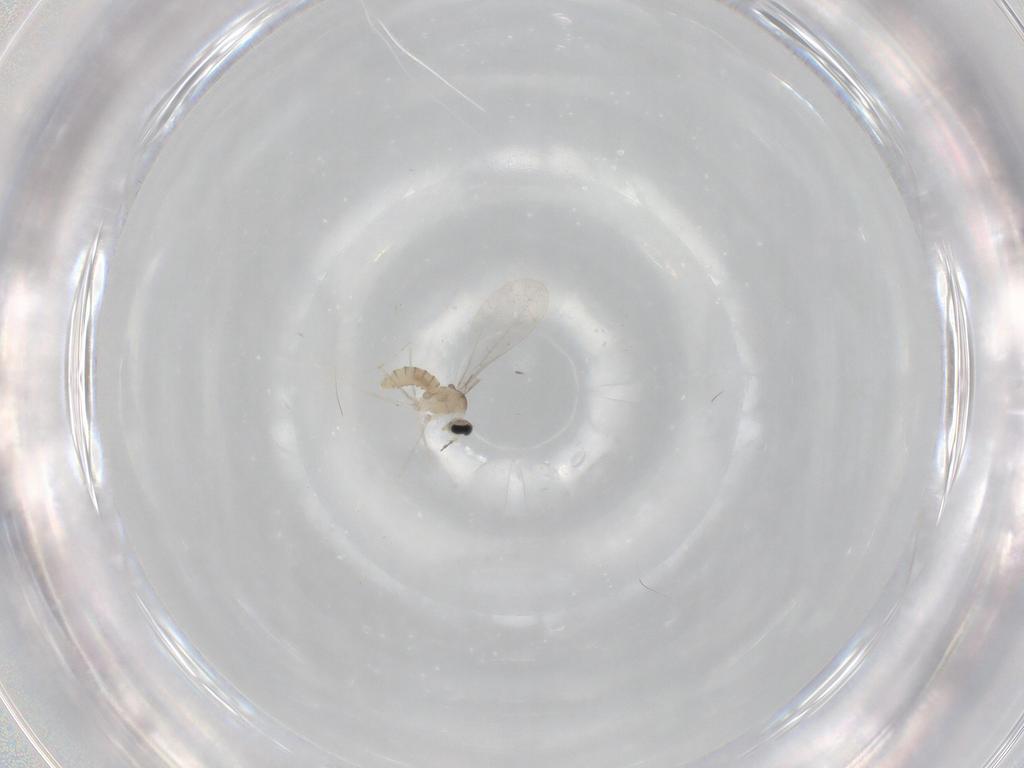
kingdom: Animalia
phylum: Arthropoda
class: Insecta
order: Diptera
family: Cecidomyiidae
